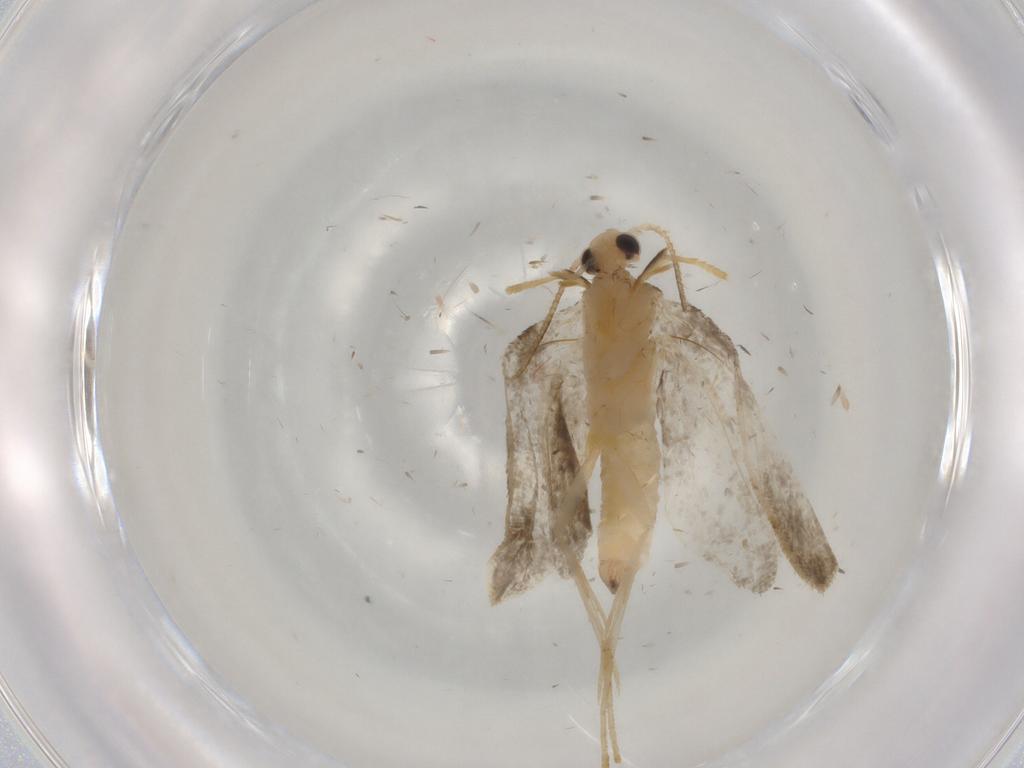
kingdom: Animalia
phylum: Arthropoda
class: Insecta
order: Lepidoptera
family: Psychidae
